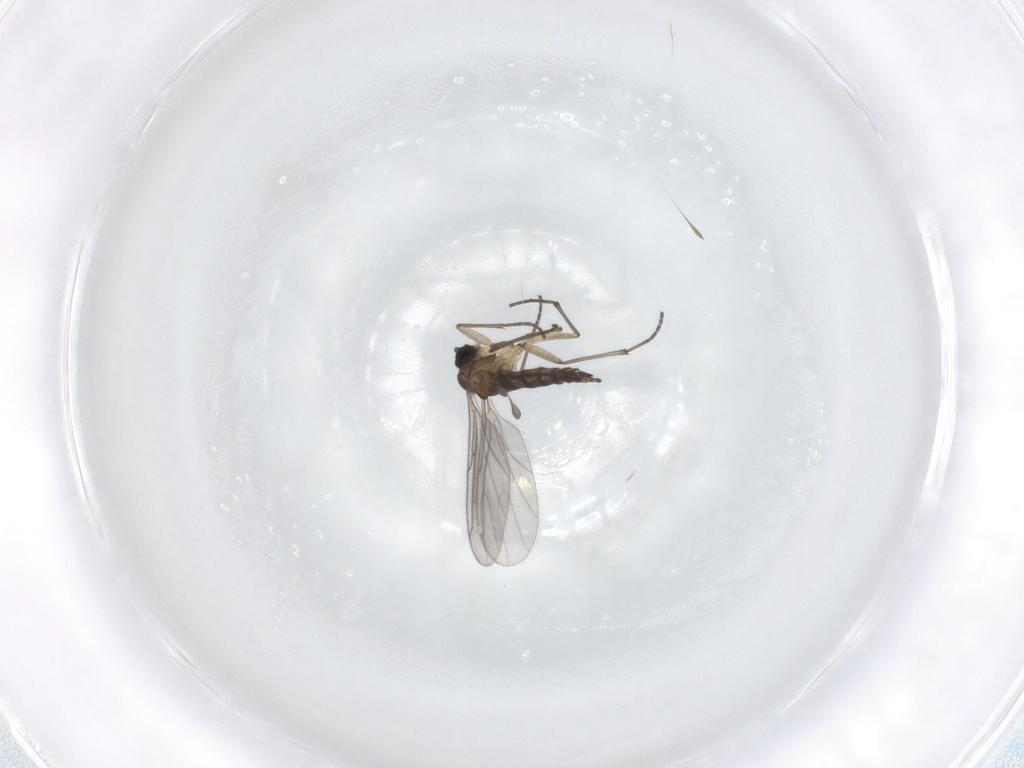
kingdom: Animalia
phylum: Arthropoda
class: Insecta
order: Diptera
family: Sciaridae
